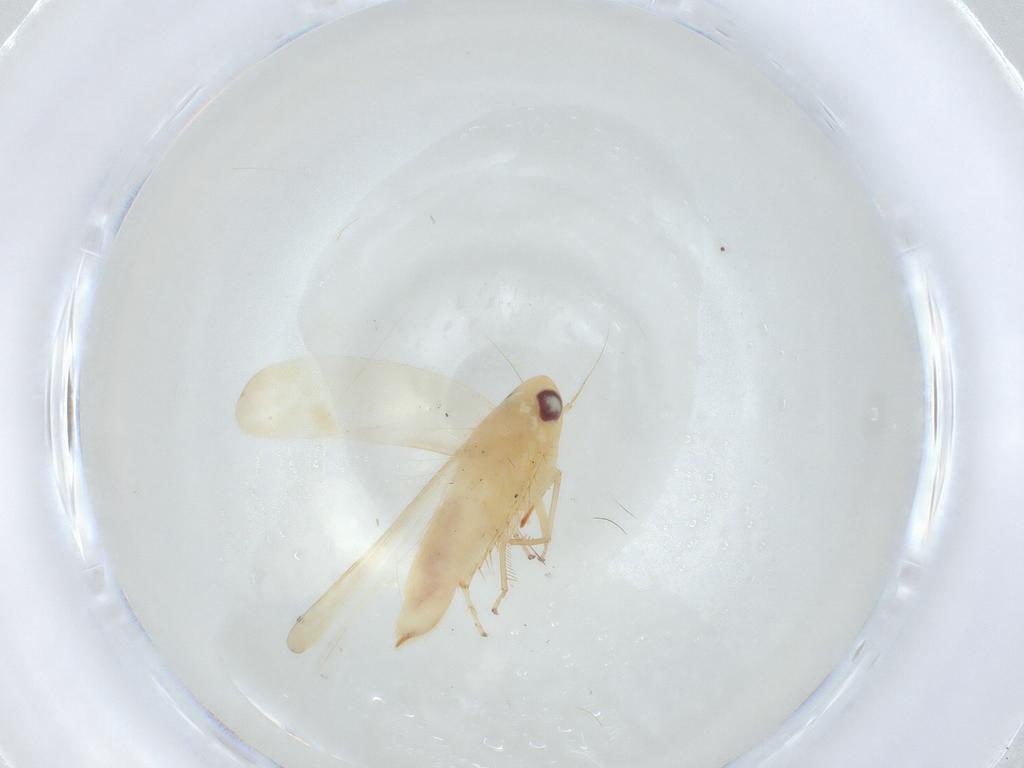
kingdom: Animalia
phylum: Arthropoda
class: Insecta
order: Hemiptera
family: Cicadellidae
